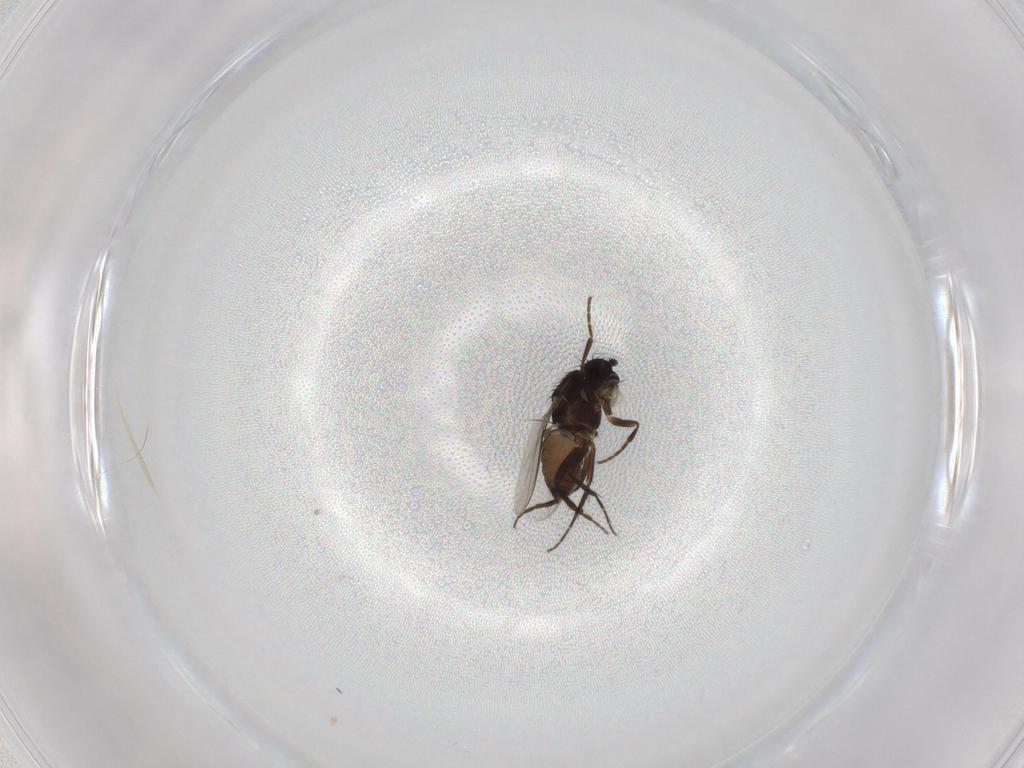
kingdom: Animalia
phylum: Arthropoda
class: Insecta
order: Diptera
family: Sphaeroceridae
